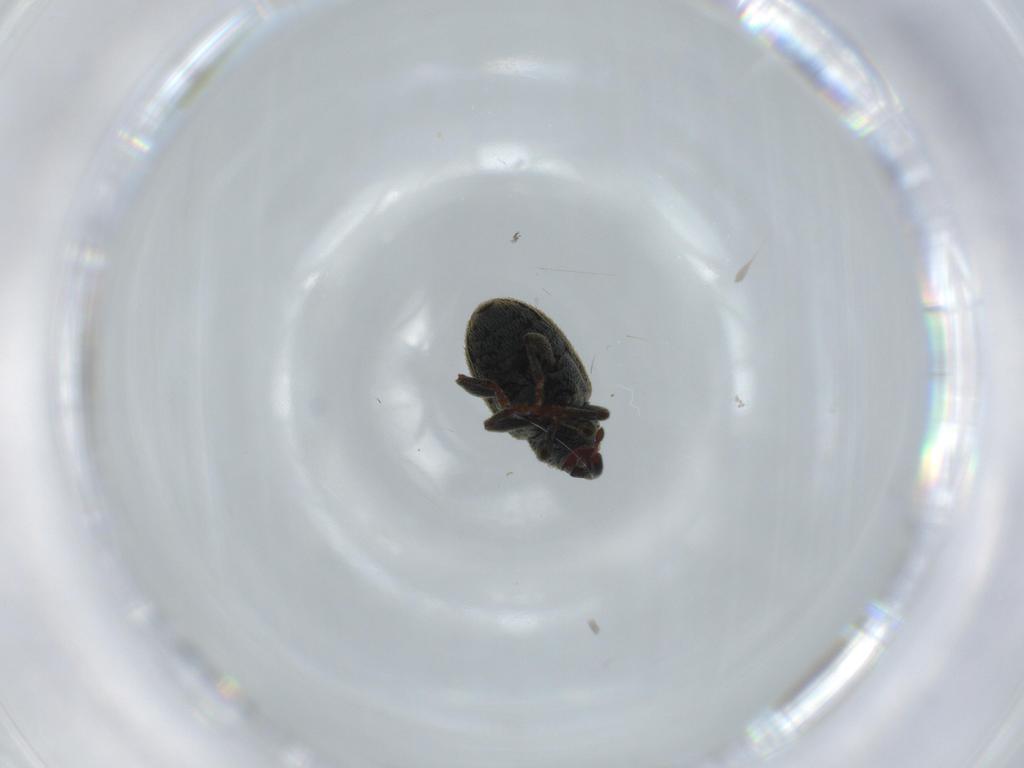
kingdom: Animalia
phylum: Arthropoda
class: Insecta
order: Coleoptera
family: Curculionidae
